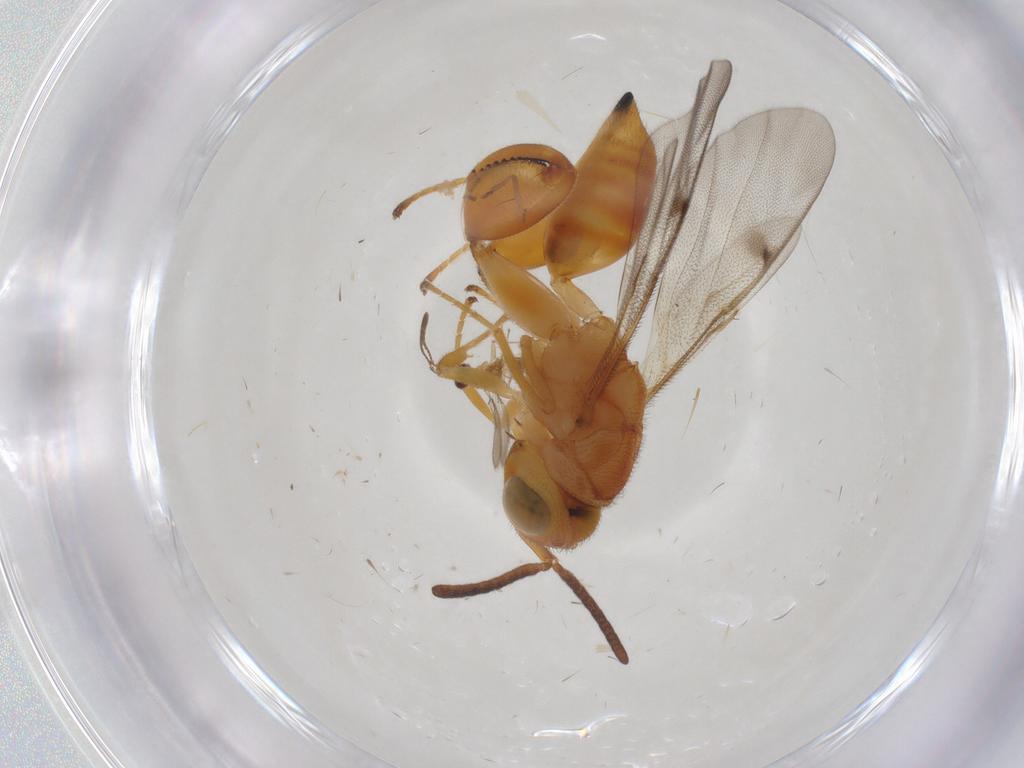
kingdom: Animalia
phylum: Arthropoda
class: Insecta
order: Hymenoptera
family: Chalcididae
